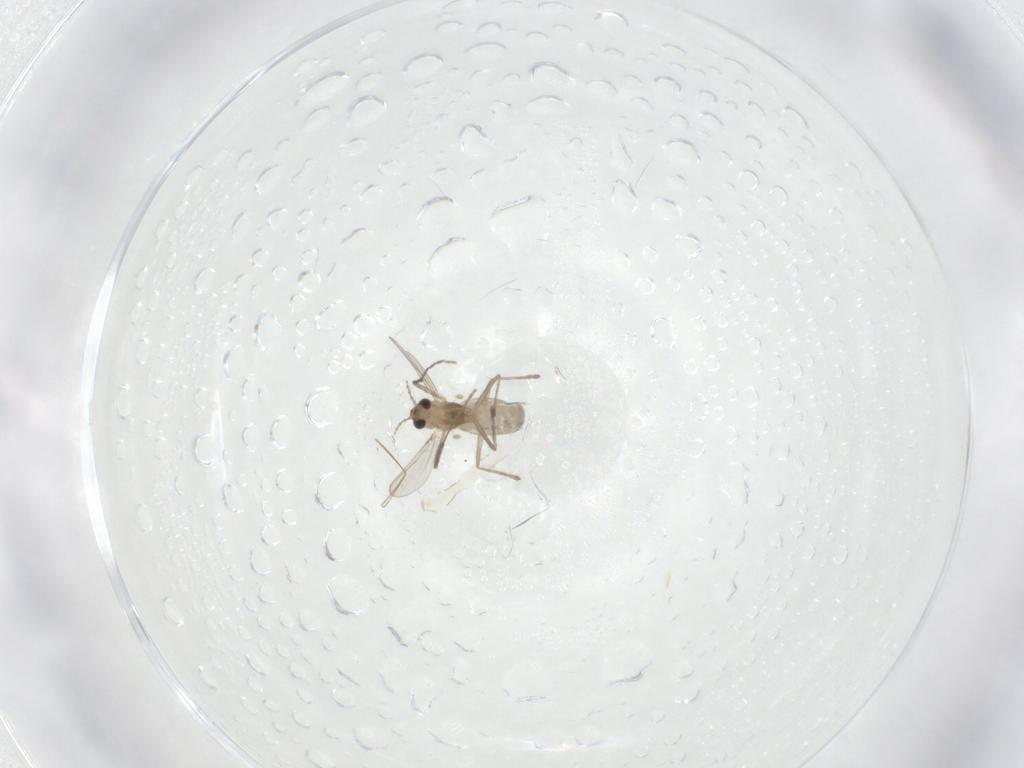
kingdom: Animalia
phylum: Arthropoda
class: Insecta
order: Diptera
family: Chironomidae
